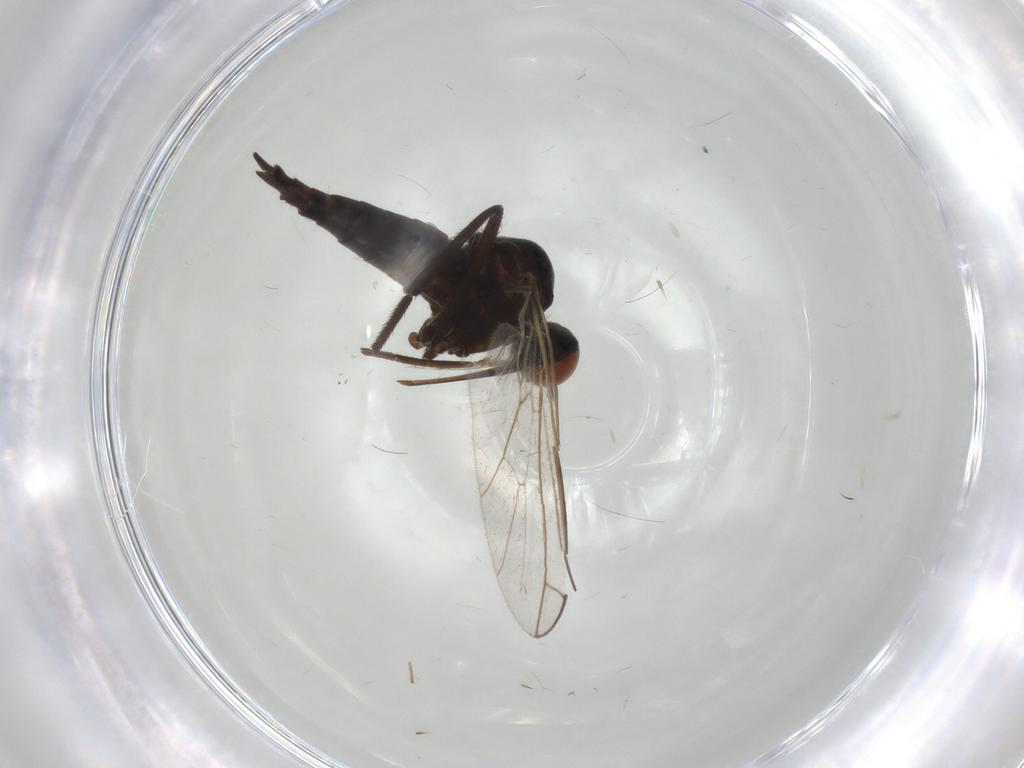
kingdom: Animalia
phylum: Arthropoda
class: Insecta
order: Diptera
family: Empididae
